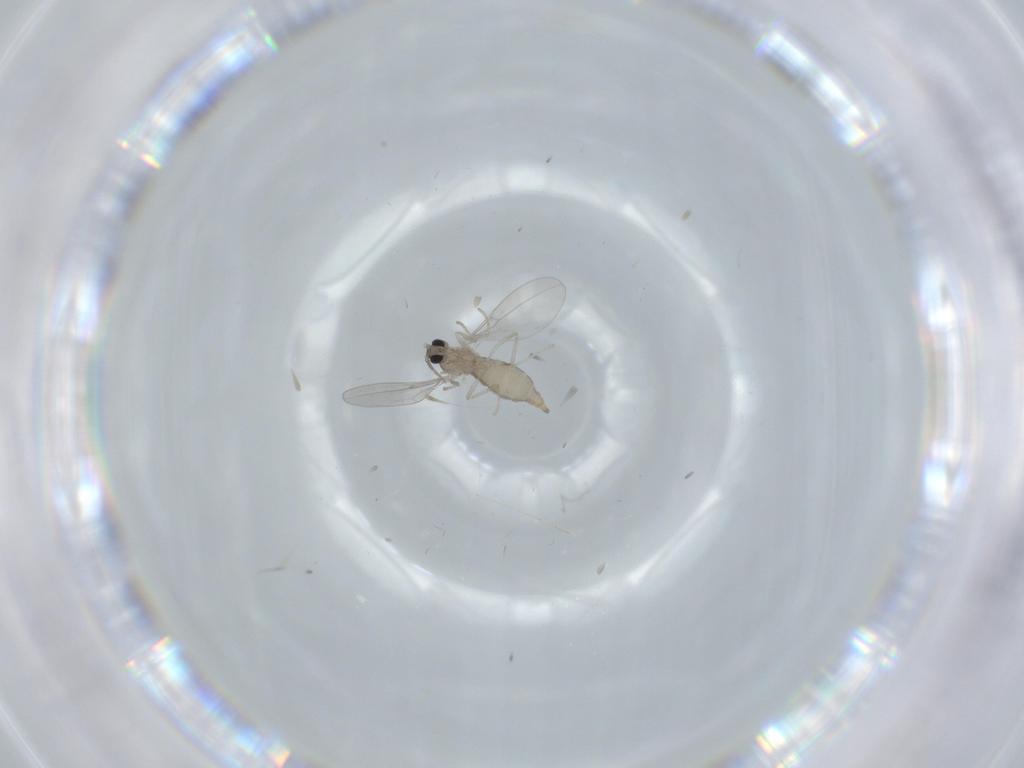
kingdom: Animalia
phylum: Arthropoda
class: Insecta
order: Diptera
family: Cecidomyiidae
